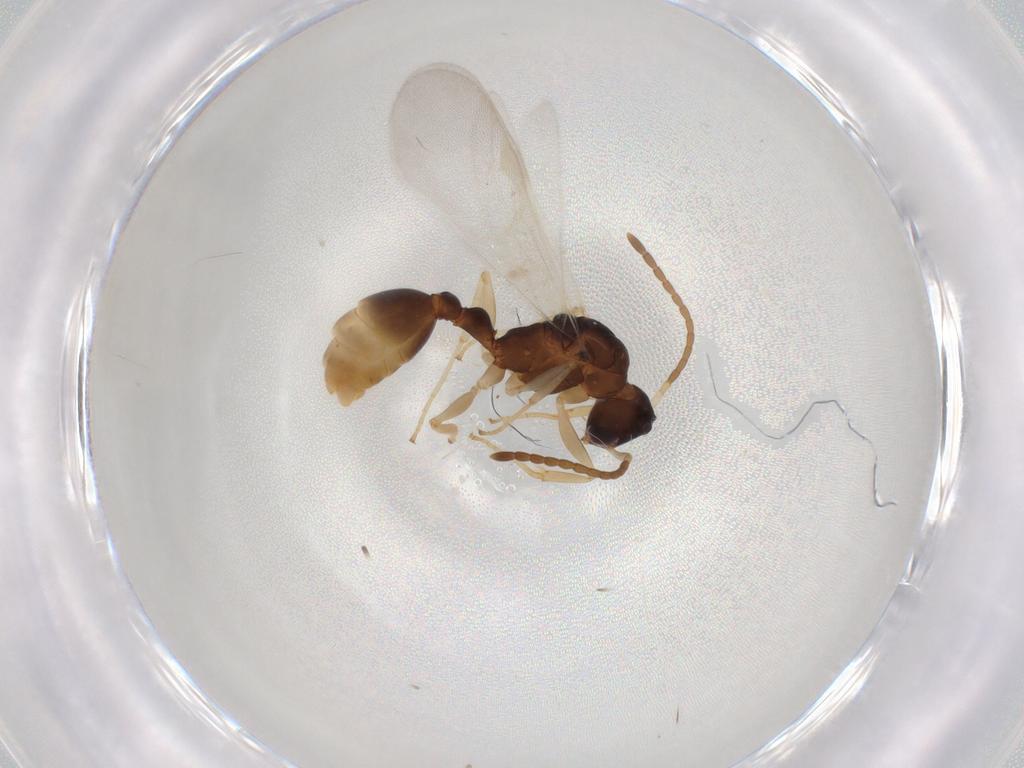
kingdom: Animalia
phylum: Arthropoda
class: Insecta
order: Hymenoptera
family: Formicidae
